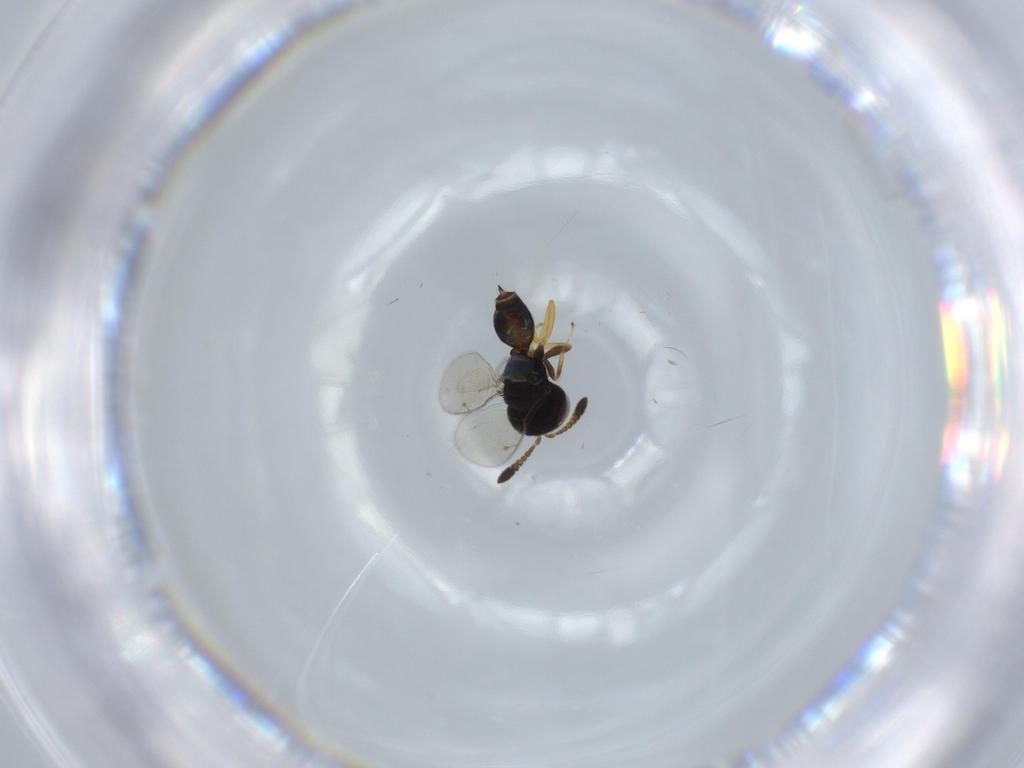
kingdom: Animalia
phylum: Arthropoda
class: Insecta
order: Hymenoptera
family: Pteromalidae
